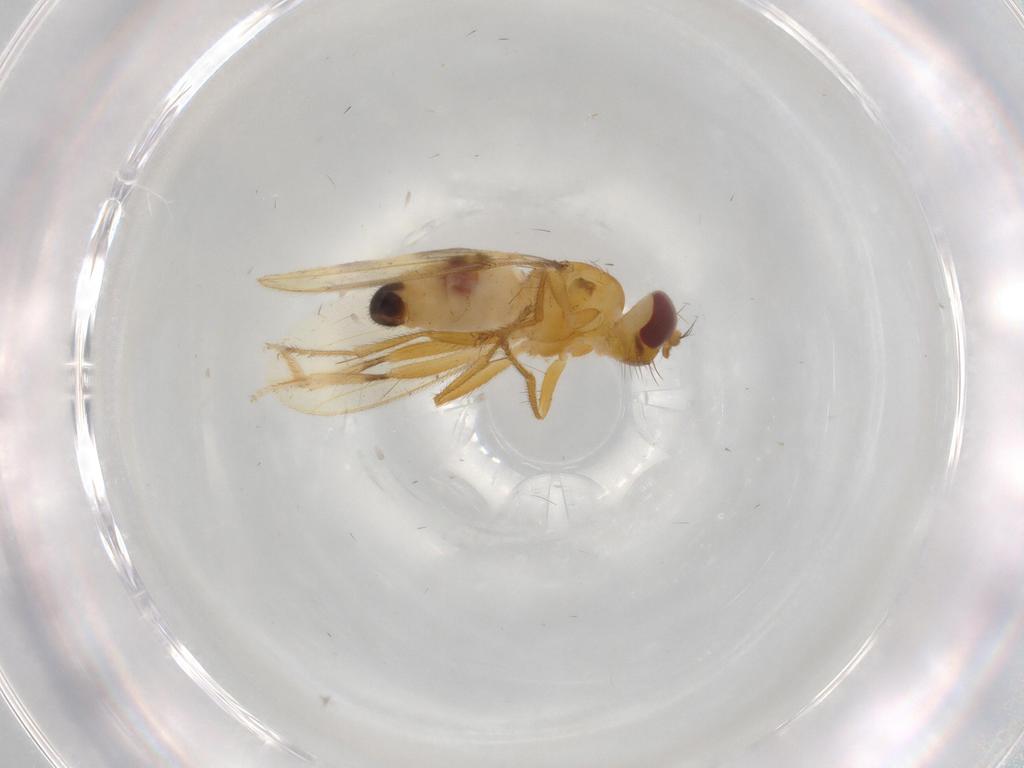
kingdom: Animalia
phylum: Arthropoda
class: Insecta
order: Diptera
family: Periscelididae
